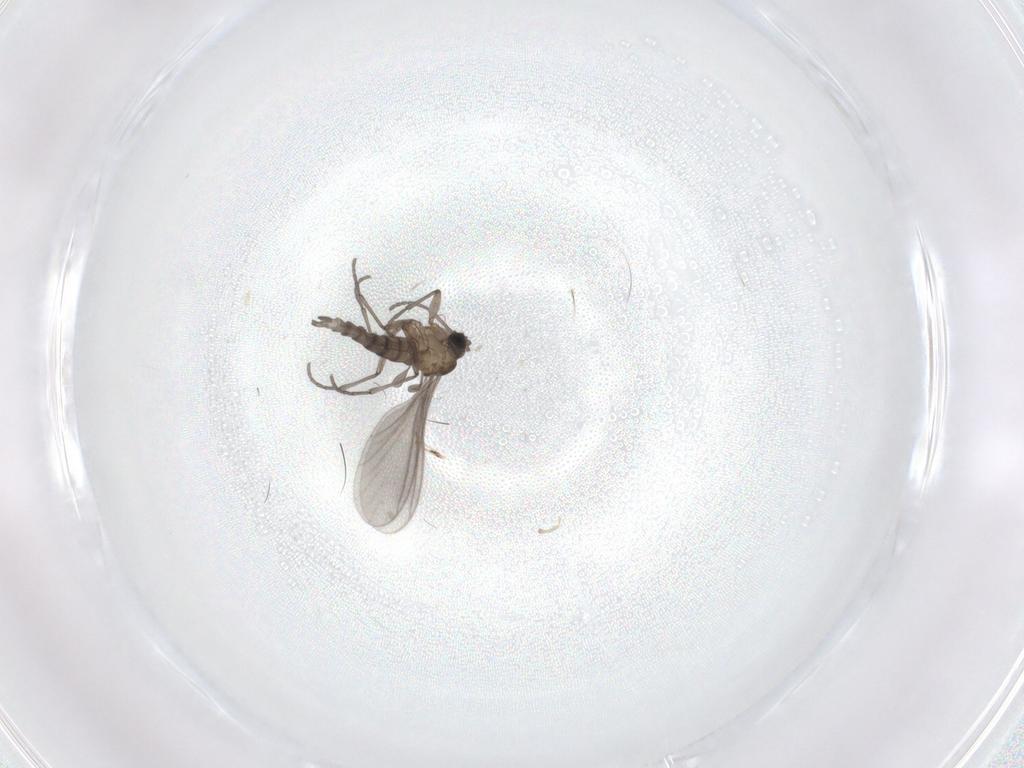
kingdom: Animalia
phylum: Arthropoda
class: Insecta
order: Diptera
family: Sciaridae
